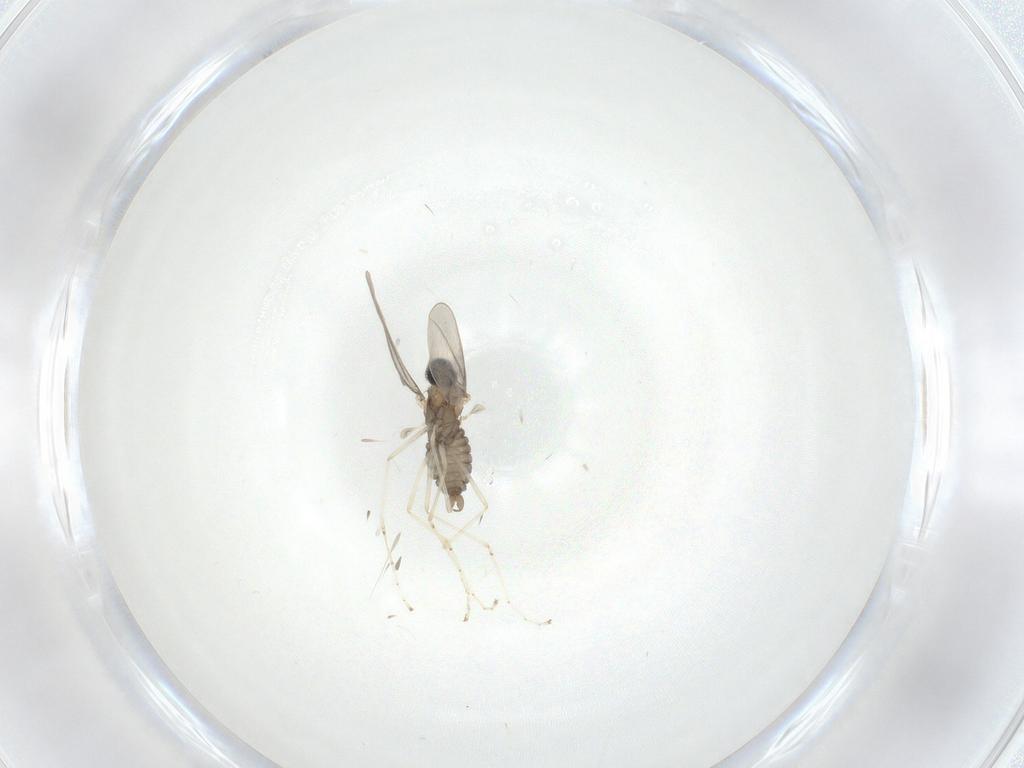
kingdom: Animalia
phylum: Arthropoda
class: Insecta
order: Diptera
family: Cecidomyiidae
